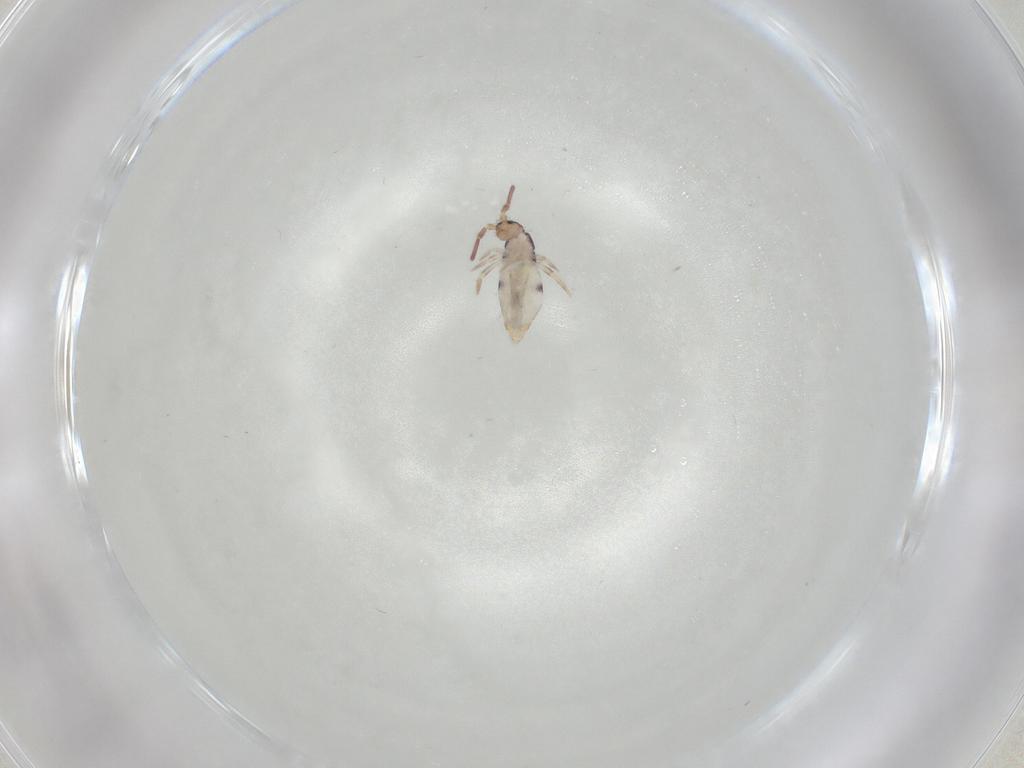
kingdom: Animalia
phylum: Arthropoda
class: Collembola
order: Entomobryomorpha
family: Entomobryidae
